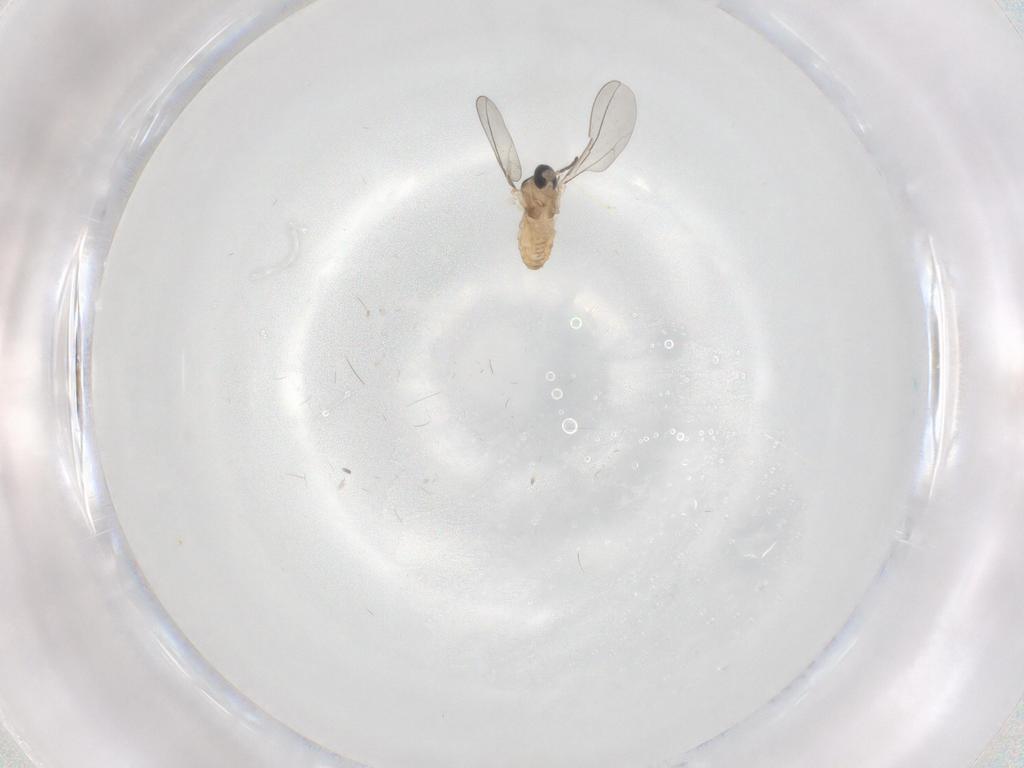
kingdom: Animalia
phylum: Arthropoda
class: Insecta
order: Diptera
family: Cecidomyiidae
